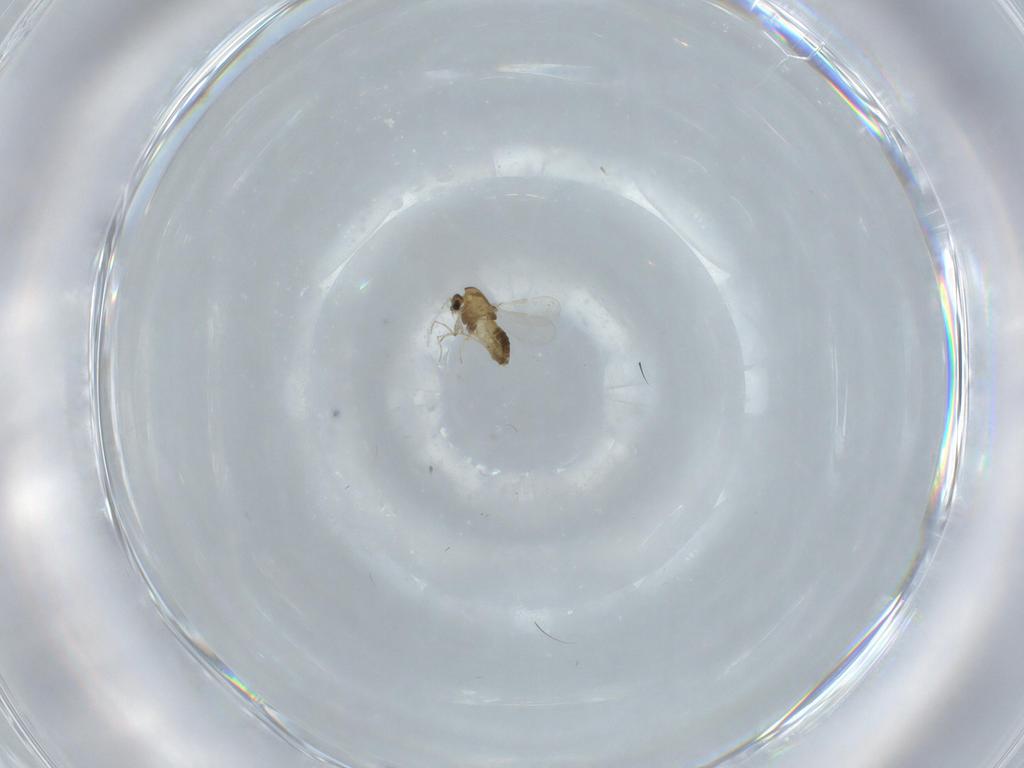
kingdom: Animalia
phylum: Arthropoda
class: Insecta
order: Diptera
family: Chironomidae
